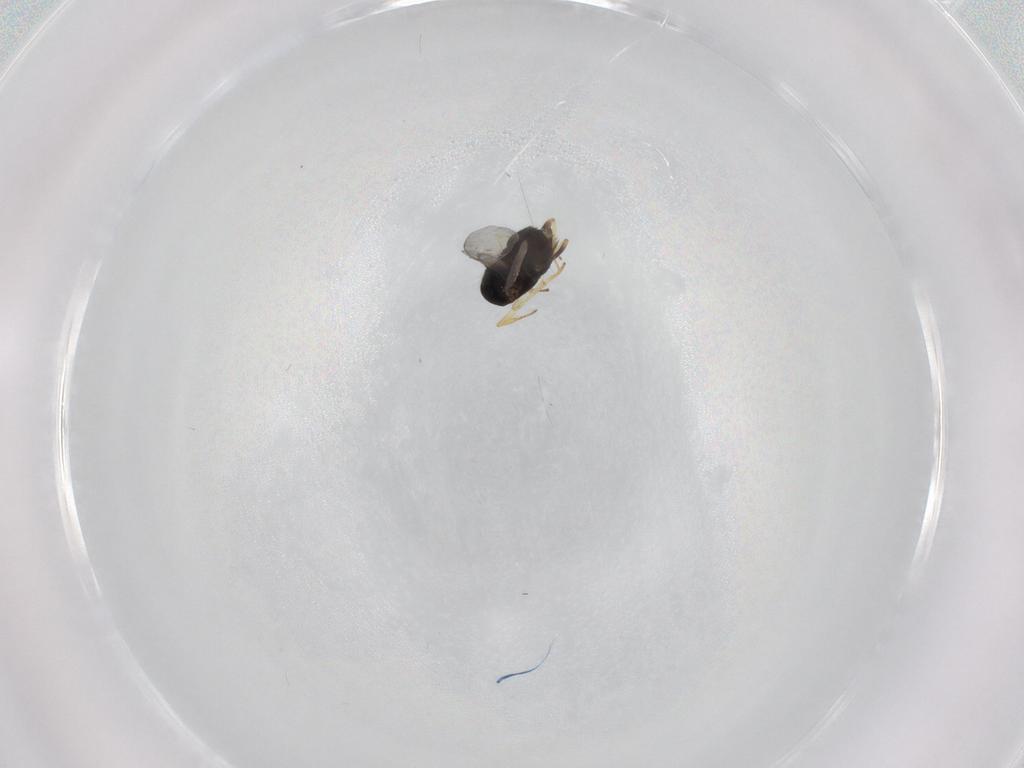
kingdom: Animalia
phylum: Arthropoda
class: Insecta
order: Hymenoptera
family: Encyrtidae
